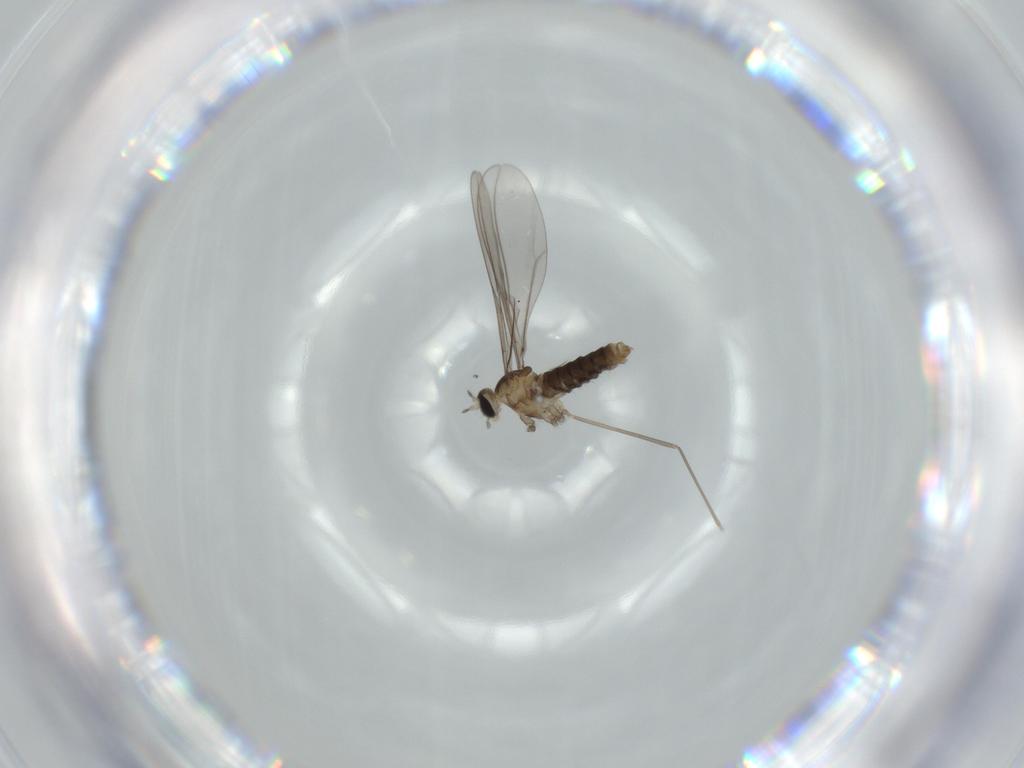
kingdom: Animalia
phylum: Arthropoda
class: Insecta
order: Diptera
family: Cecidomyiidae
